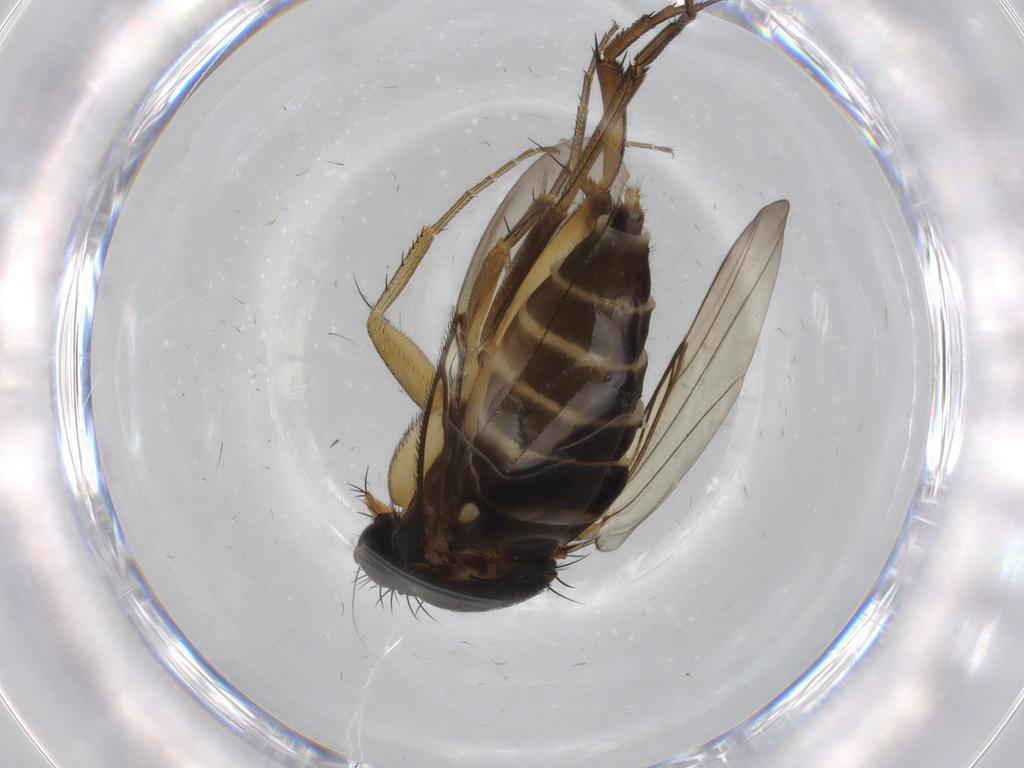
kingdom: Animalia
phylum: Arthropoda
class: Insecta
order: Diptera
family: Phoridae
